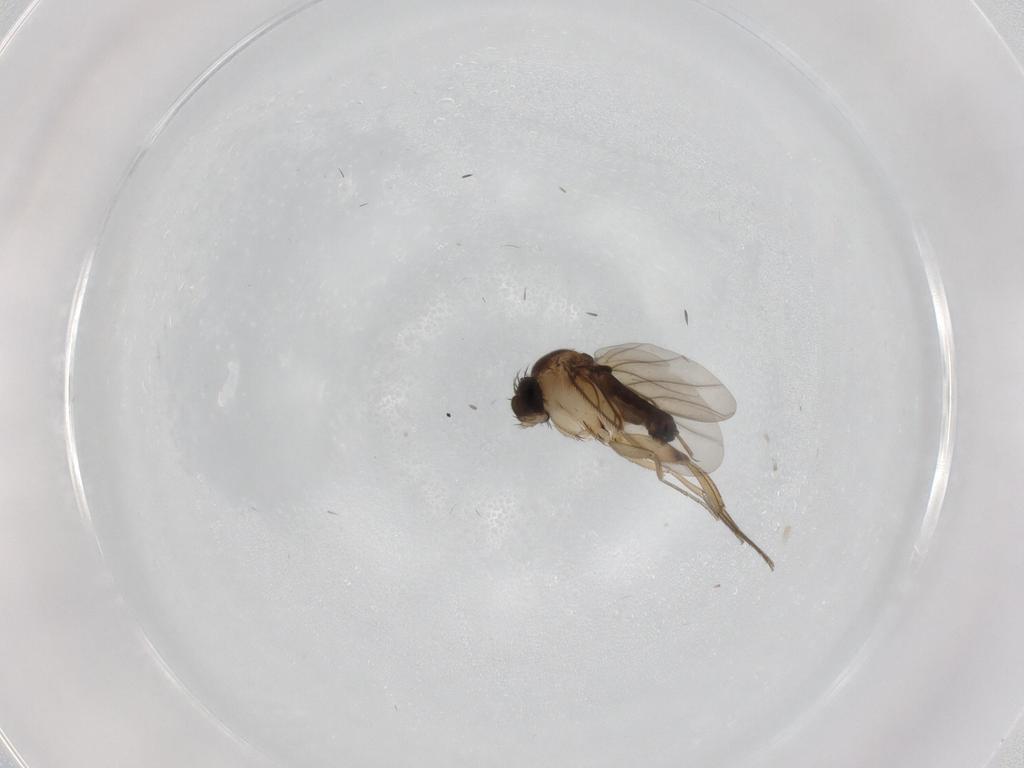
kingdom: Animalia
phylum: Arthropoda
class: Insecta
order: Diptera
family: Phoridae
